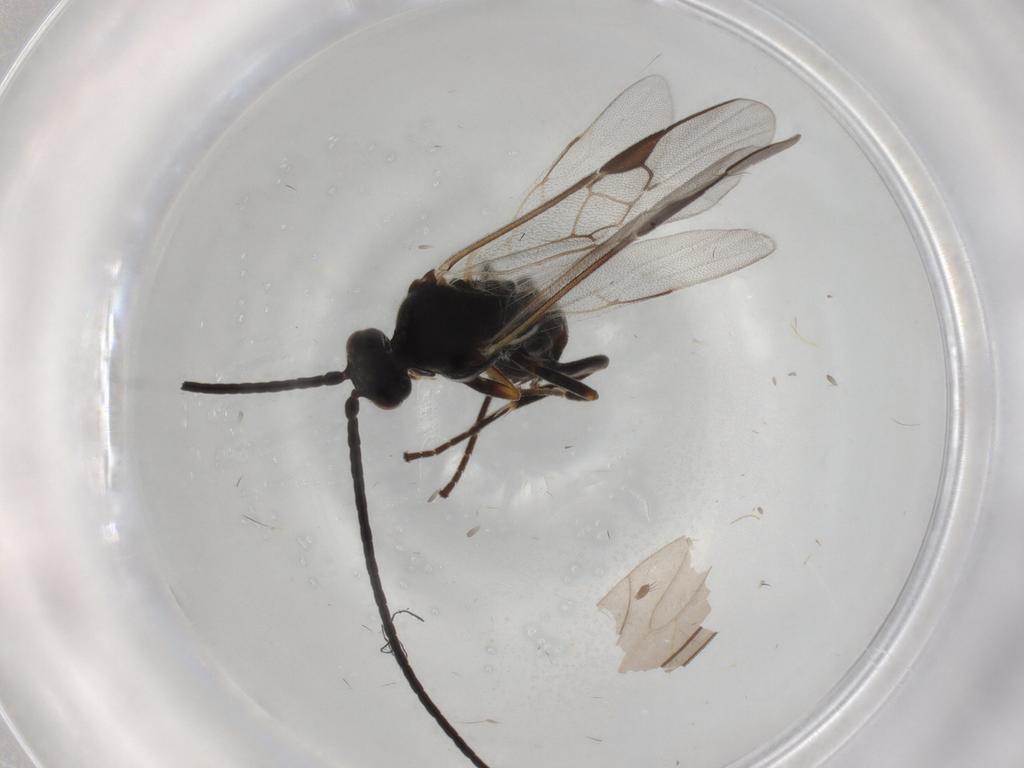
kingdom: Animalia
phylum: Arthropoda
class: Insecta
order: Hymenoptera
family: Braconidae
